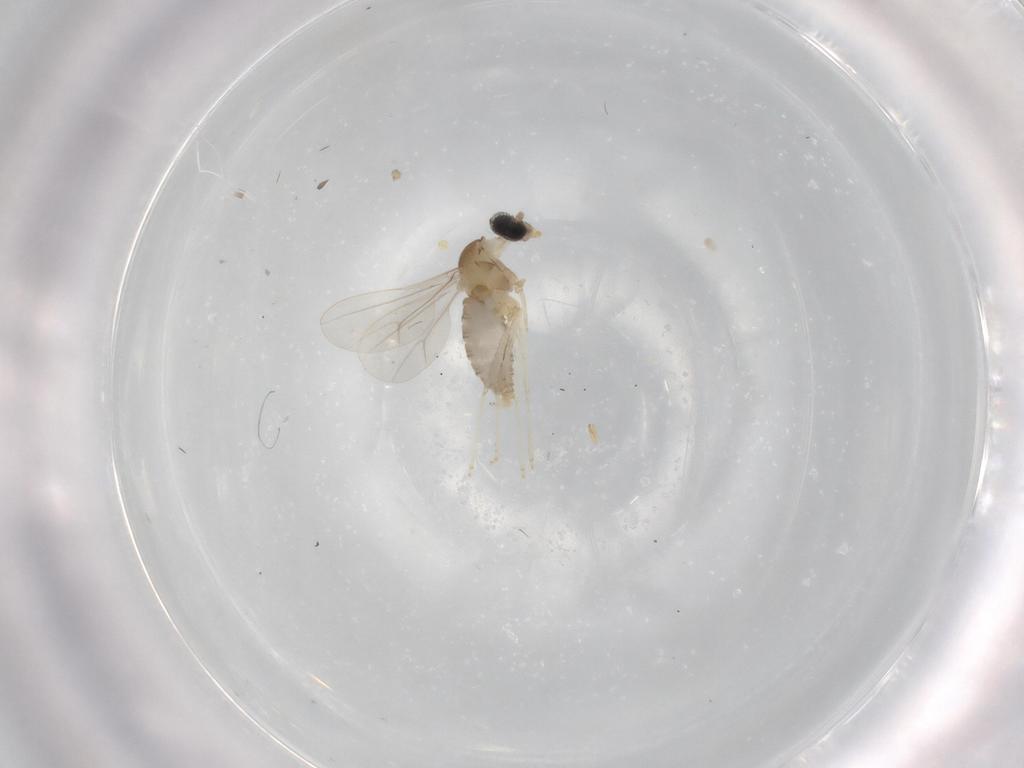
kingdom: Animalia
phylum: Arthropoda
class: Insecta
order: Diptera
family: Cecidomyiidae
